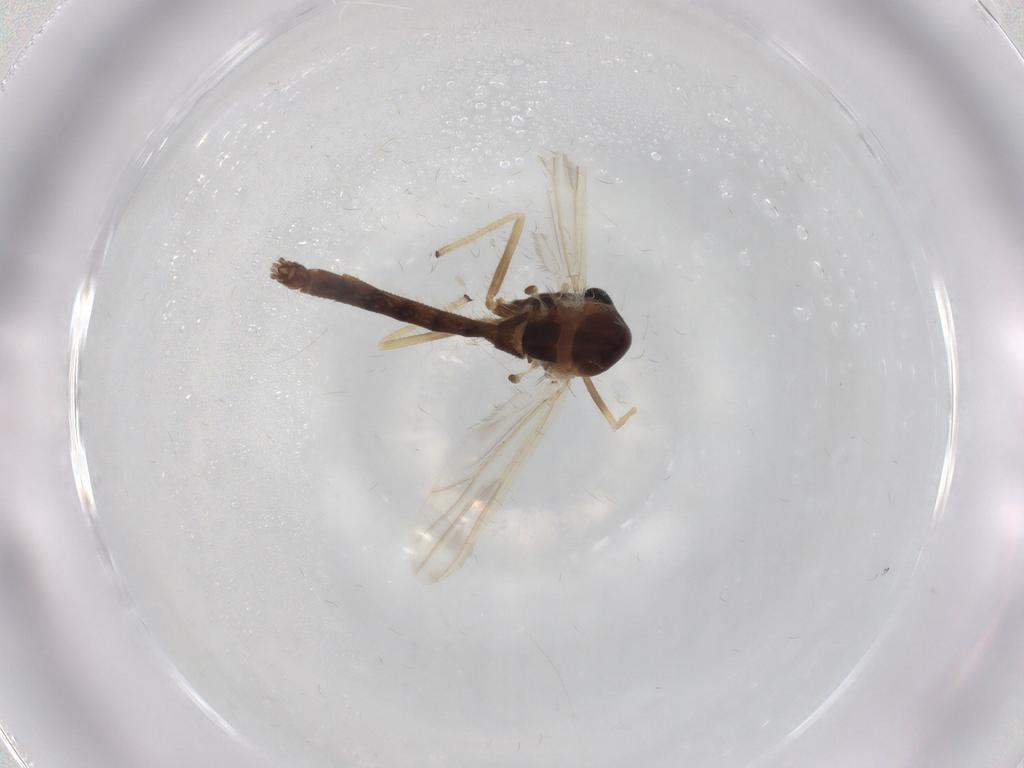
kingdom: Animalia
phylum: Arthropoda
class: Insecta
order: Diptera
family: Chironomidae
